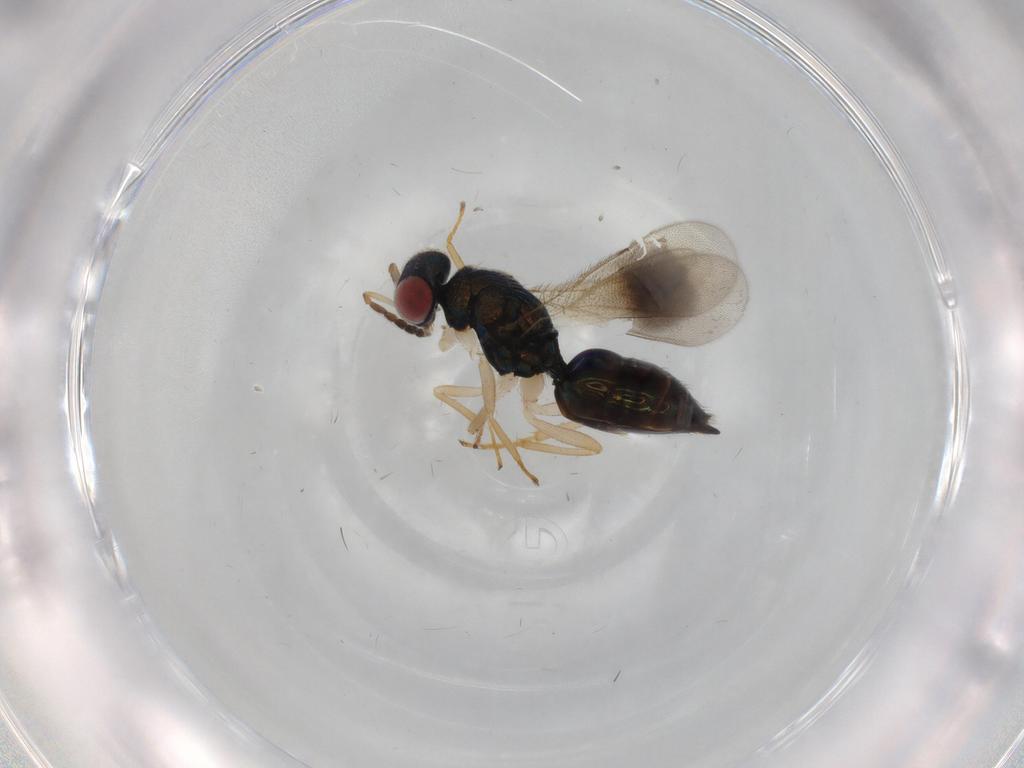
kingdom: Animalia
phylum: Arthropoda
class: Insecta
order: Hymenoptera
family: Eulophidae
